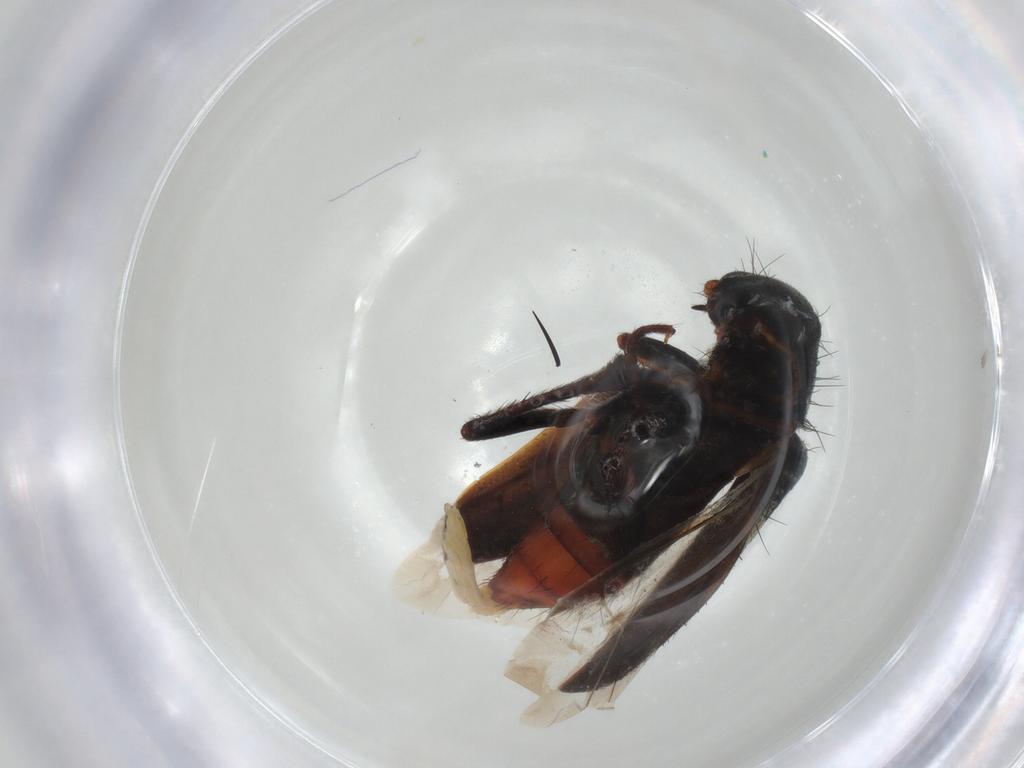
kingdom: Animalia
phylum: Arthropoda
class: Insecta
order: Coleoptera
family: Melyridae
